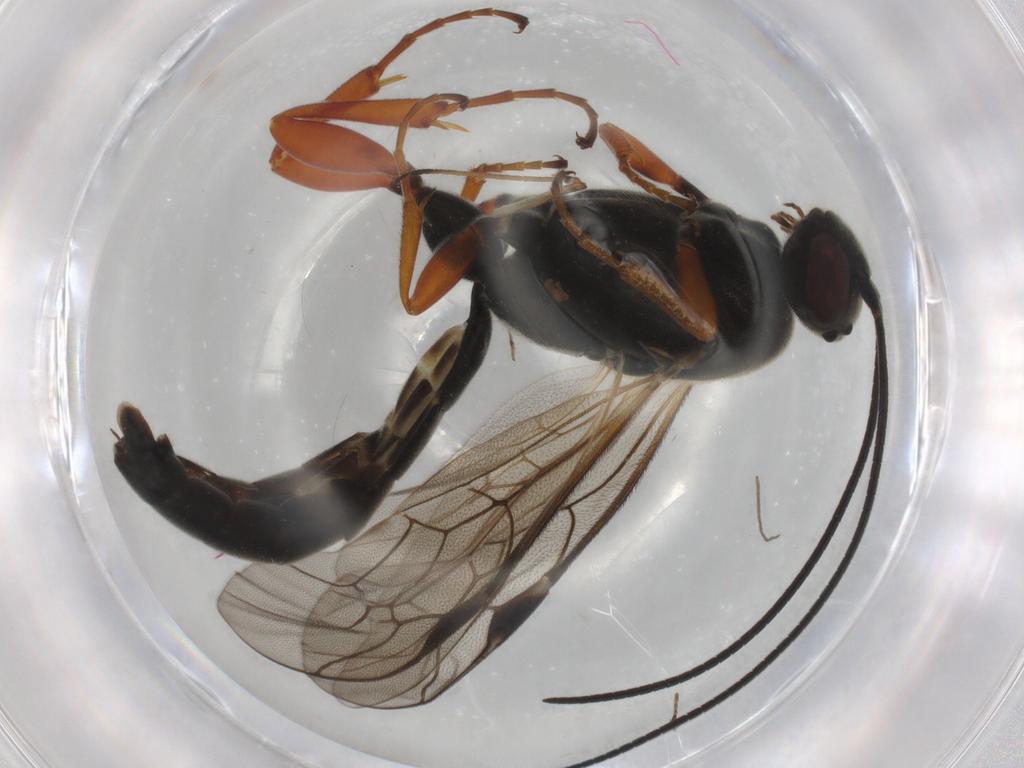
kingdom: Animalia
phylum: Arthropoda
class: Insecta
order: Hymenoptera
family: Ichneumonidae
